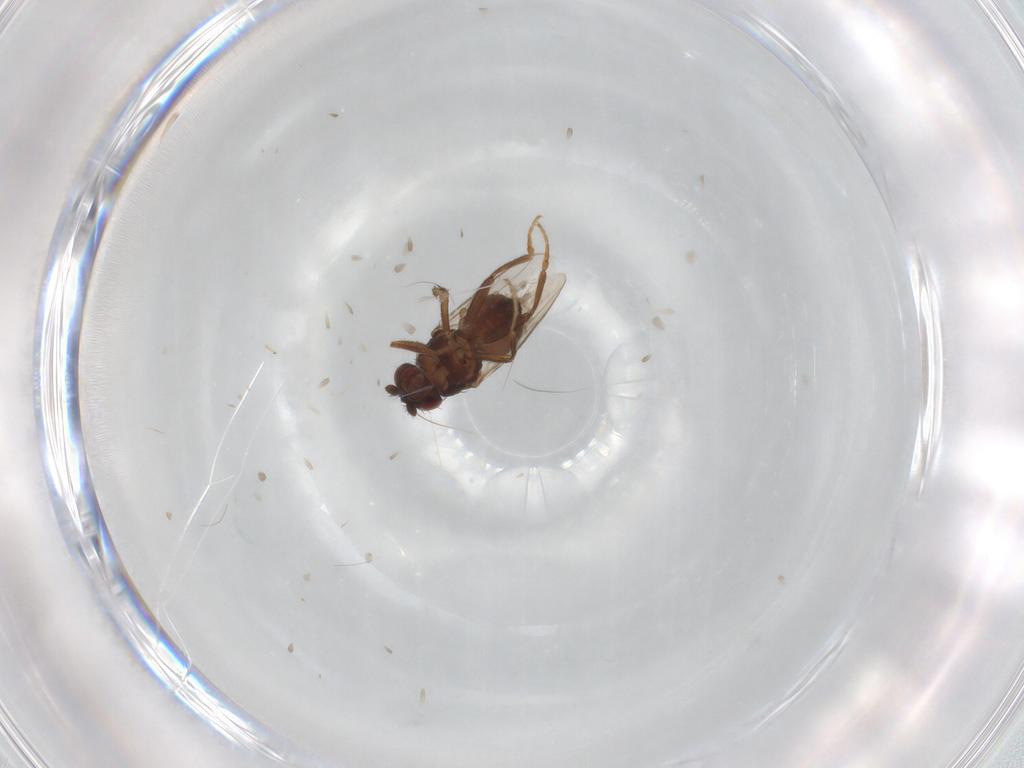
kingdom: Animalia
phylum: Arthropoda
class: Insecta
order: Diptera
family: Sphaeroceridae
